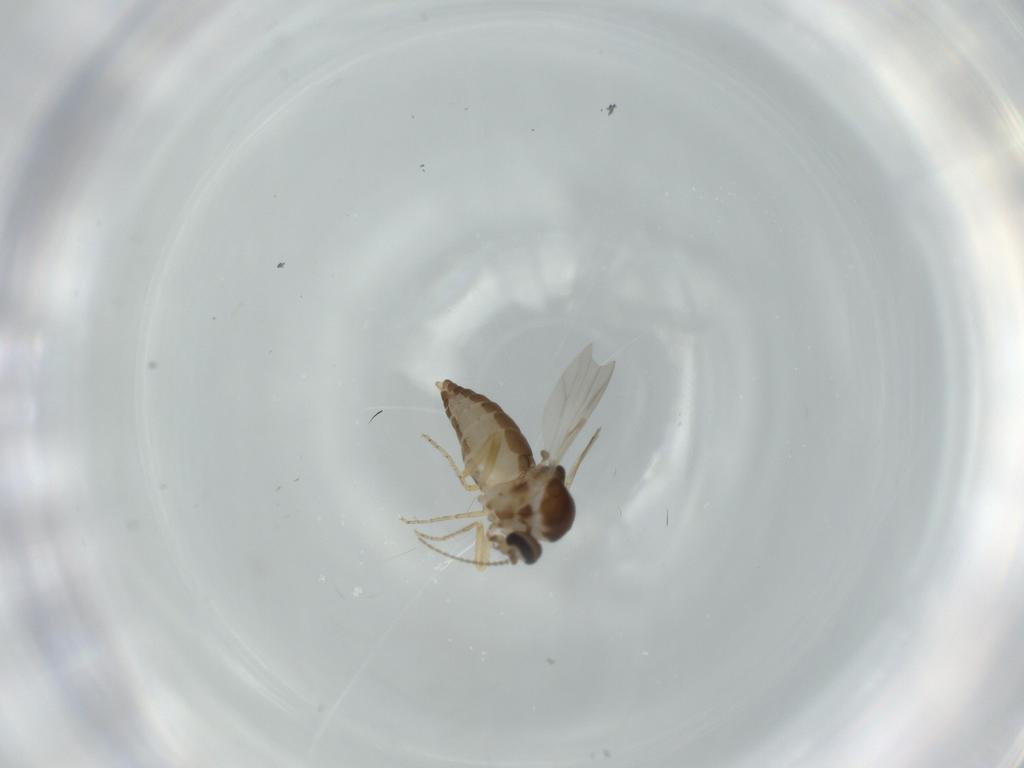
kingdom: Animalia
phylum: Arthropoda
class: Insecta
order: Diptera
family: Ceratopogonidae
